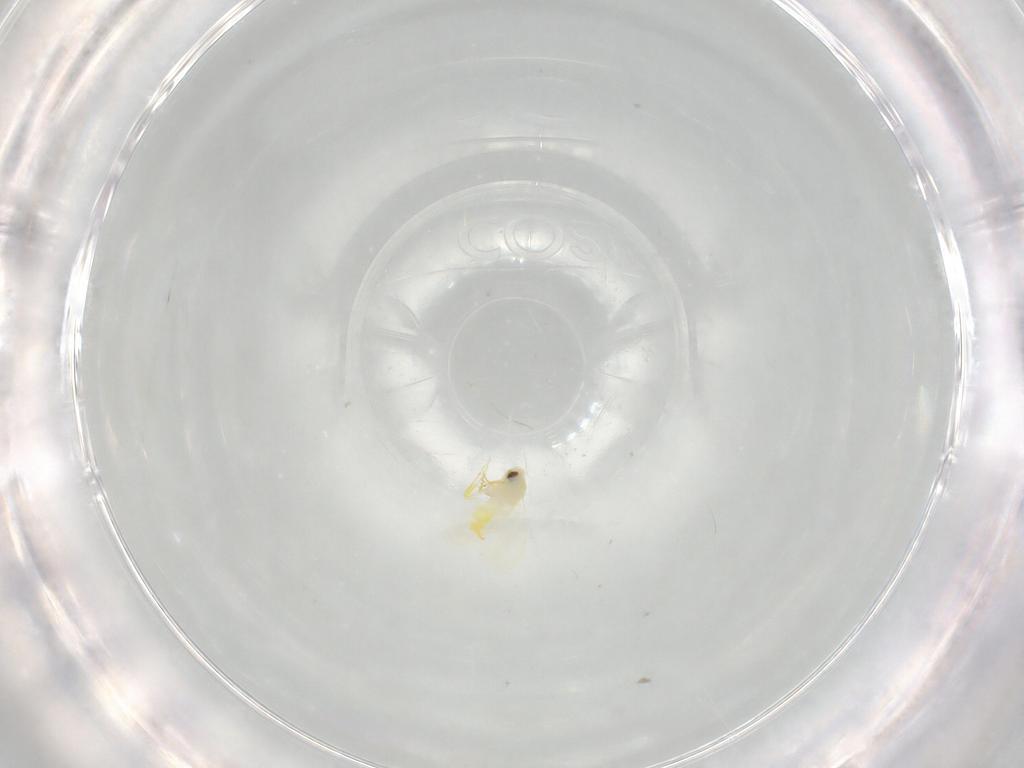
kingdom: Animalia
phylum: Arthropoda
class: Insecta
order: Hemiptera
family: Aleyrodidae
